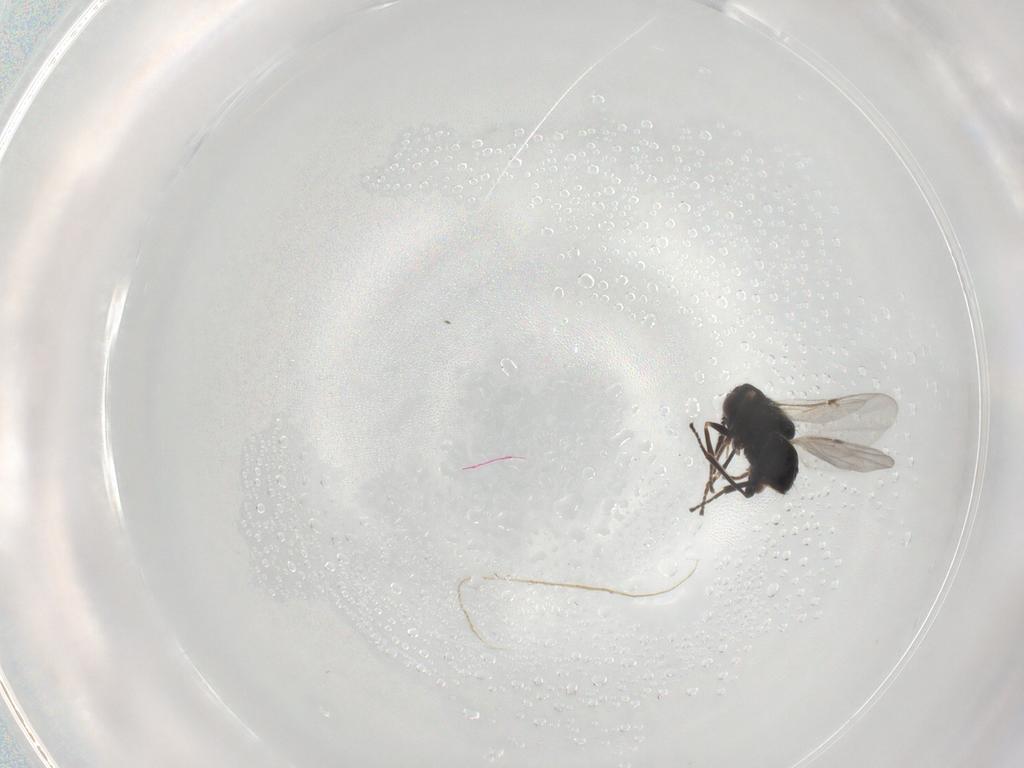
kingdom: Animalia
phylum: Arthropoda
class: Insecta
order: Hymenoptera
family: Encyrtidae
